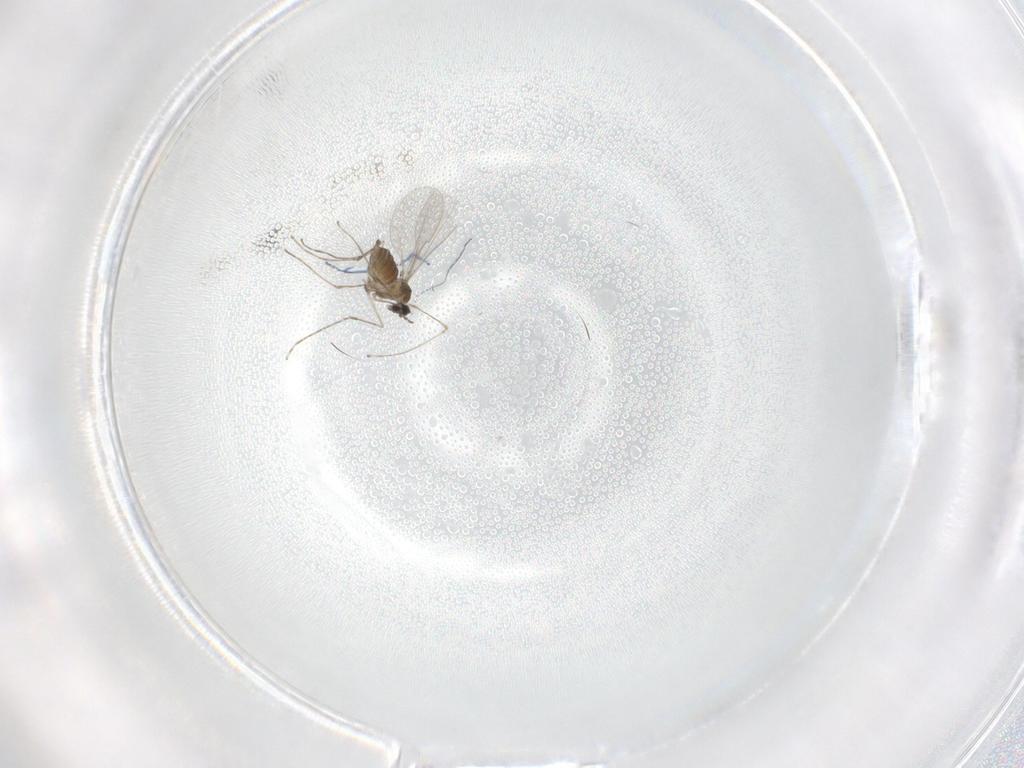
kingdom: Animalia
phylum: Arthropoda
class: Insecta
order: Diptera
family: Cecidomyiidae
